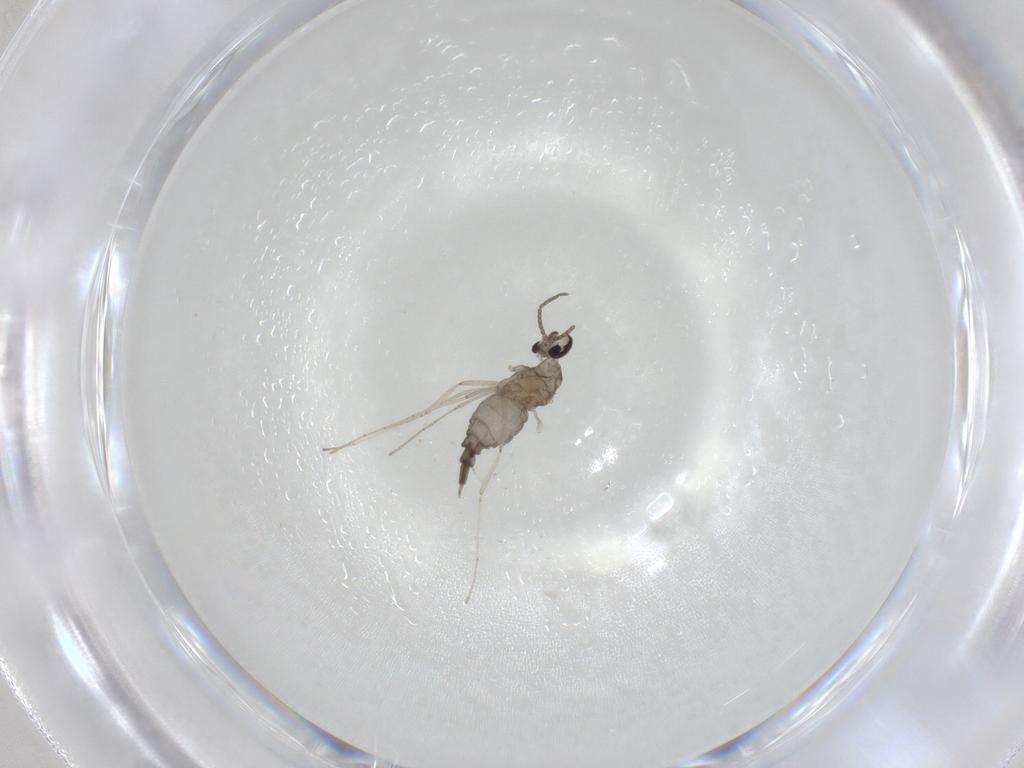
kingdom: Animalia
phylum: Arthropoda
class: Insecta
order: Diptera
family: Cecidomyiidae
